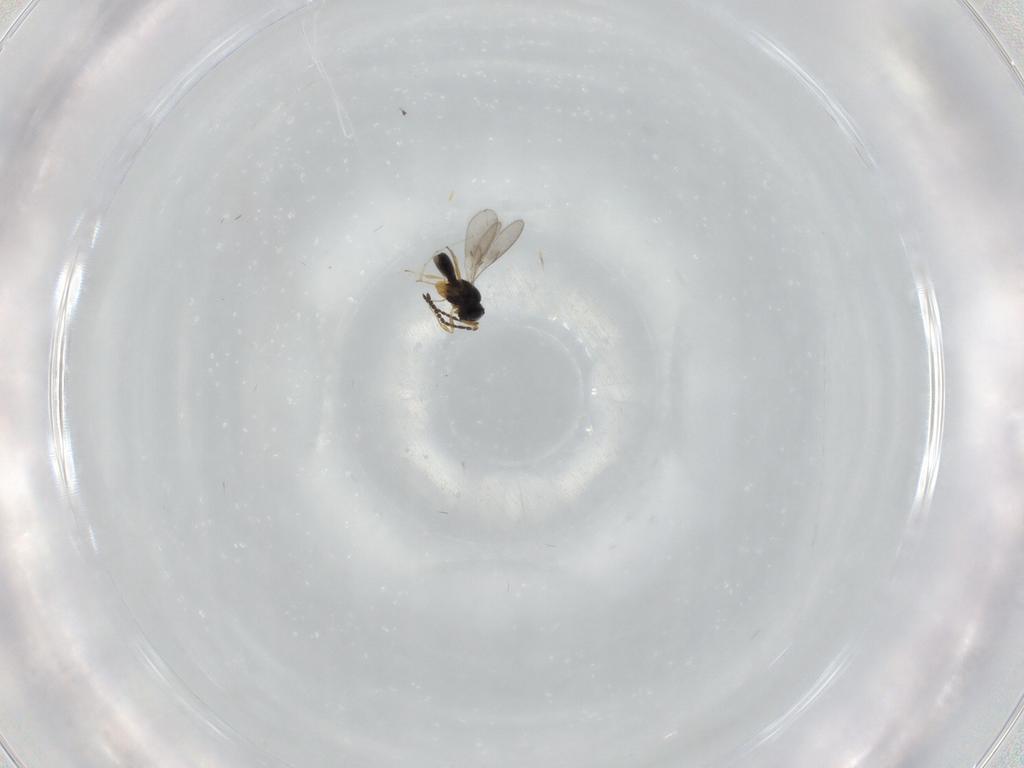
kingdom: Animalia
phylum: Arthropoda
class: Insecta
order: Hymenoptera
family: Scelionidae
